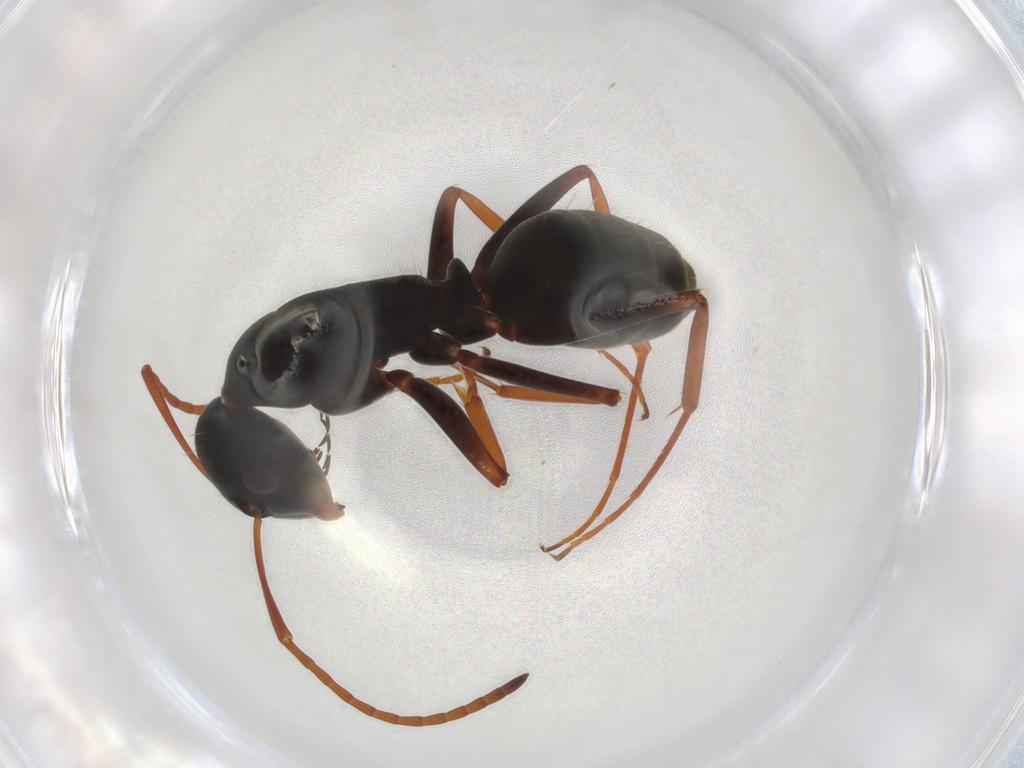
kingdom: Animalia
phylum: Arthropoda
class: Insecta
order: Hymenoptera
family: Formicidae
